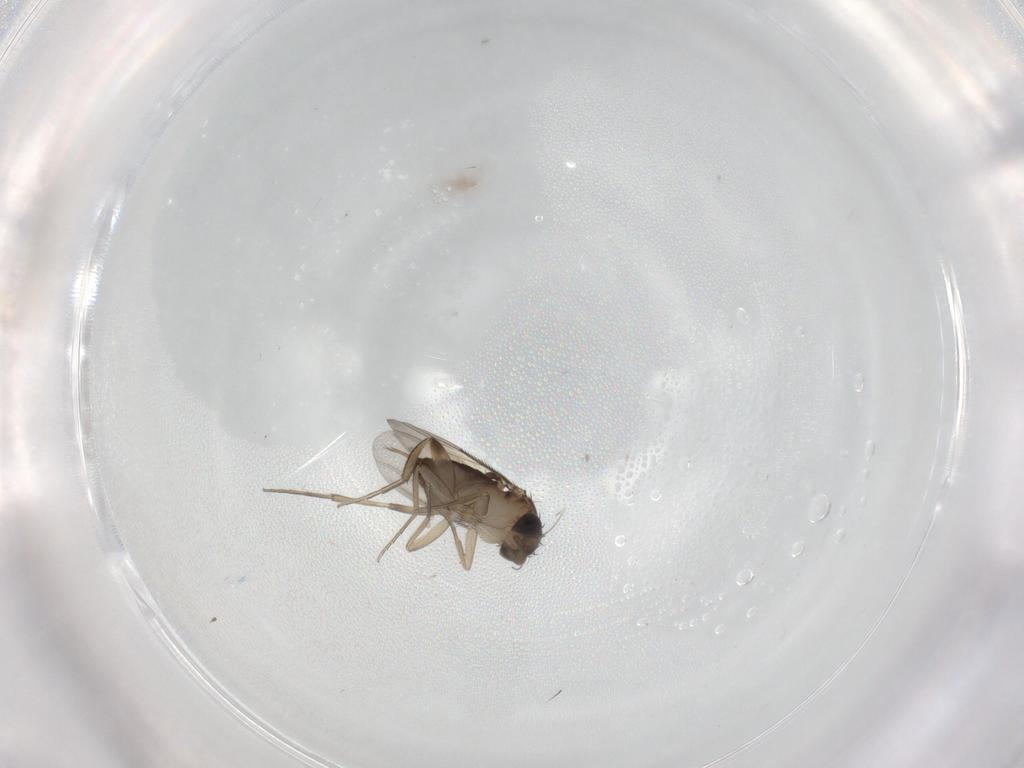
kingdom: Animalia
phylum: Arthropoda
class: Insecta
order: Diptera
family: Phoridae
